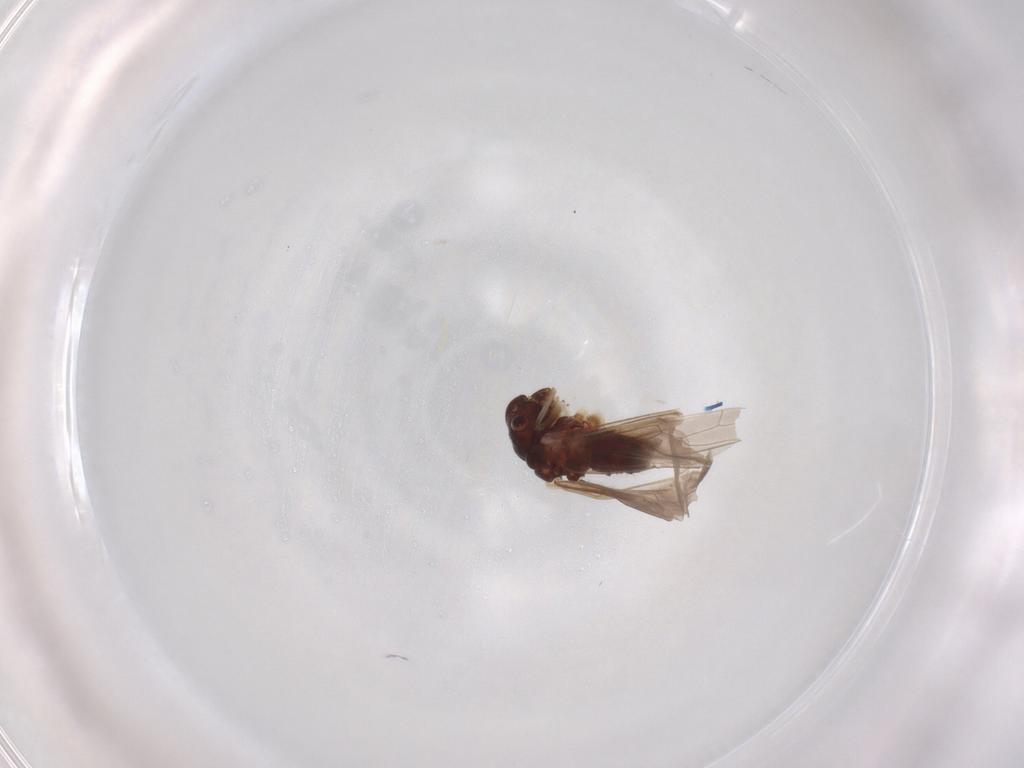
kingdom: Animalia
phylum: Arthropoda
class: Insecta
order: Psocodea
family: Caeciliusidae
